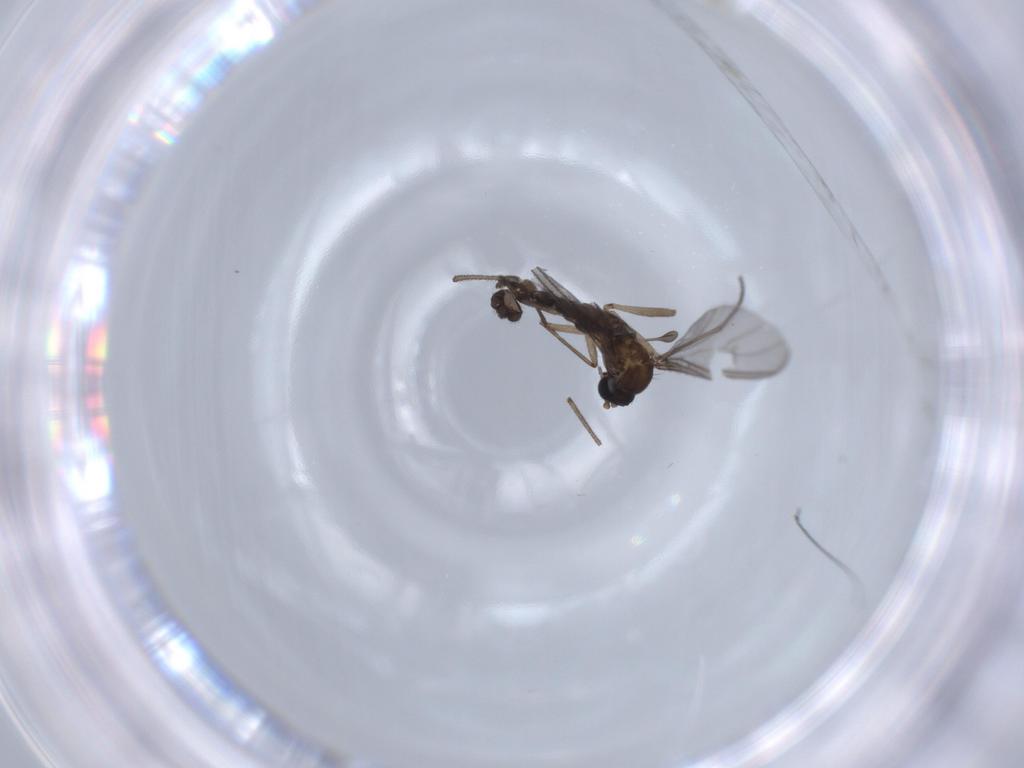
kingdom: Animalia
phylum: Arthropoda
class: Insecta
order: Diptera
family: Sciaridae
